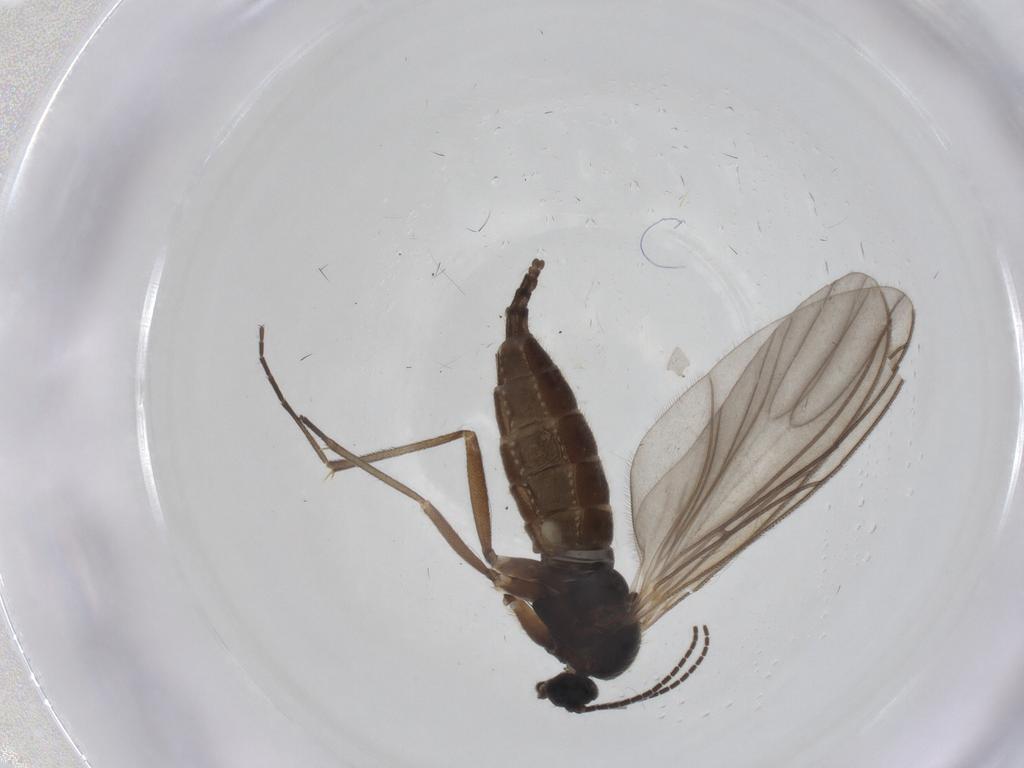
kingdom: Animalia
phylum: Arthropoda
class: Insecta
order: Diptera
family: Sciaridae
